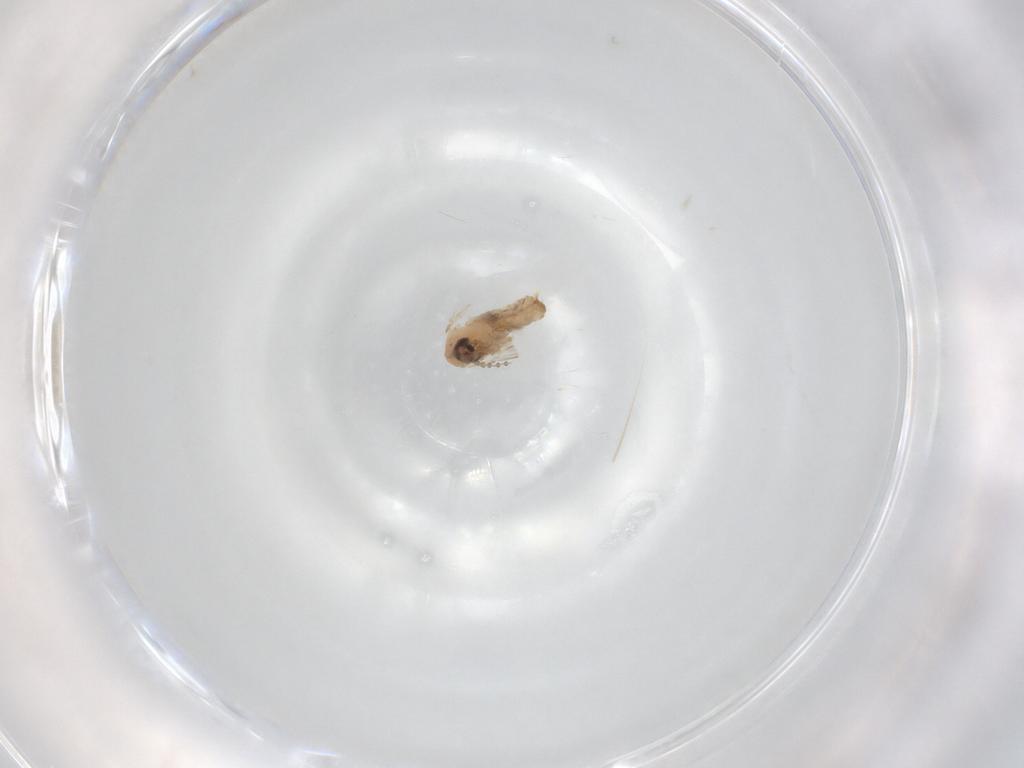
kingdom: Animalia
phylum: Arthropoda
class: Insecta
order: Diptera
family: Psychodidae
